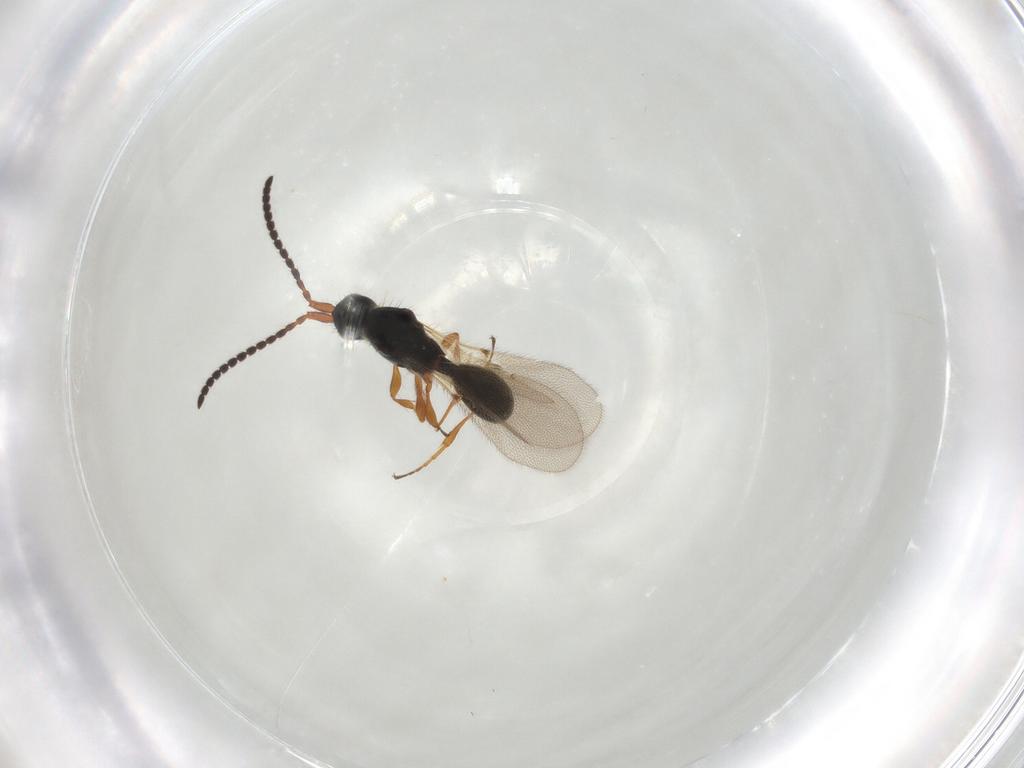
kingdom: Animalia
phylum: Arthropoda
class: Insecta
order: Hymenoptera
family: Diapriidae
